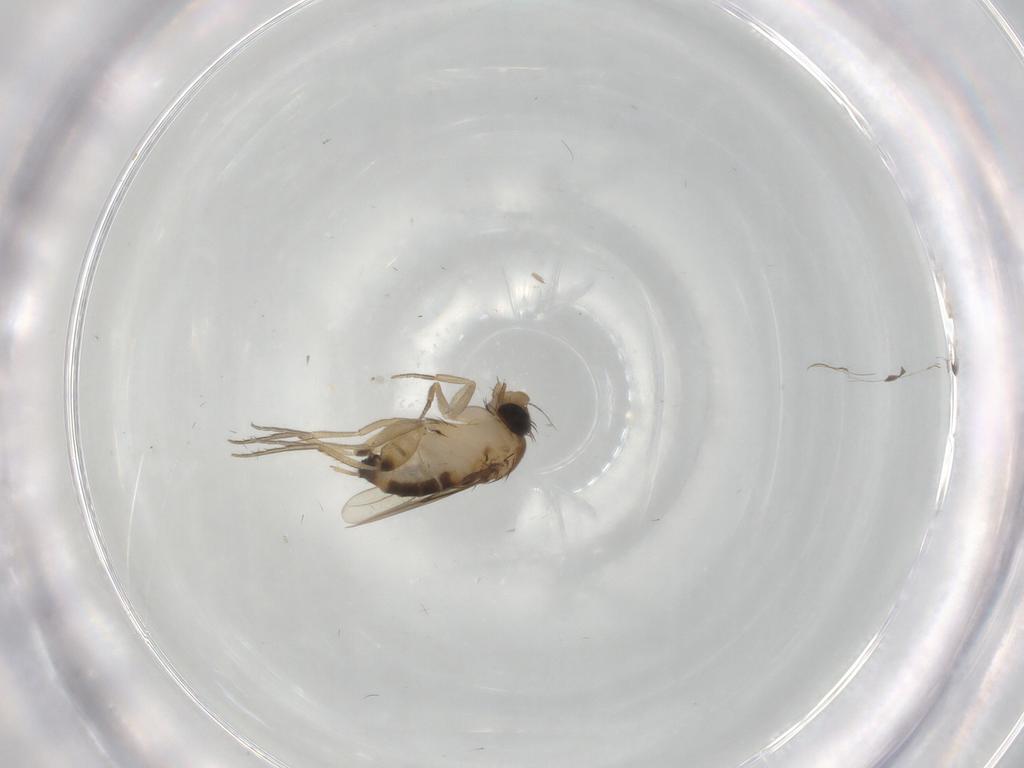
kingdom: Animalia
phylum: Arthropoda
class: Insecta
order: Diptera
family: Phoridae
